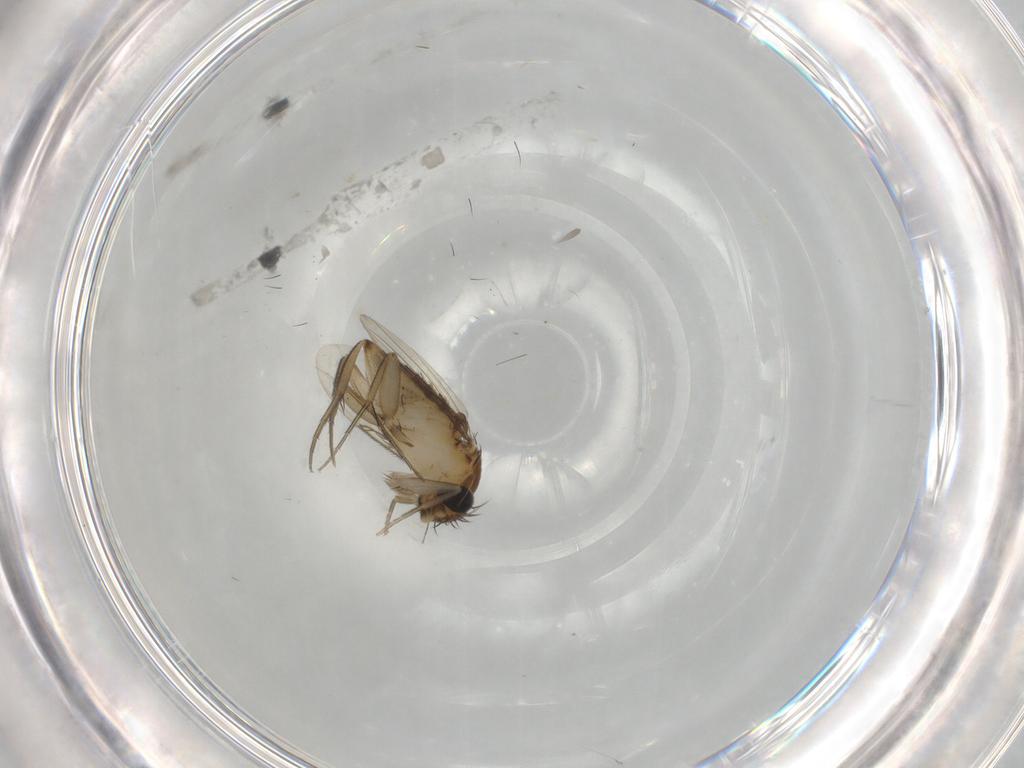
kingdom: Animalia
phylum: Arthropoda
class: Insecta
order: Diptera
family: Phoridae
